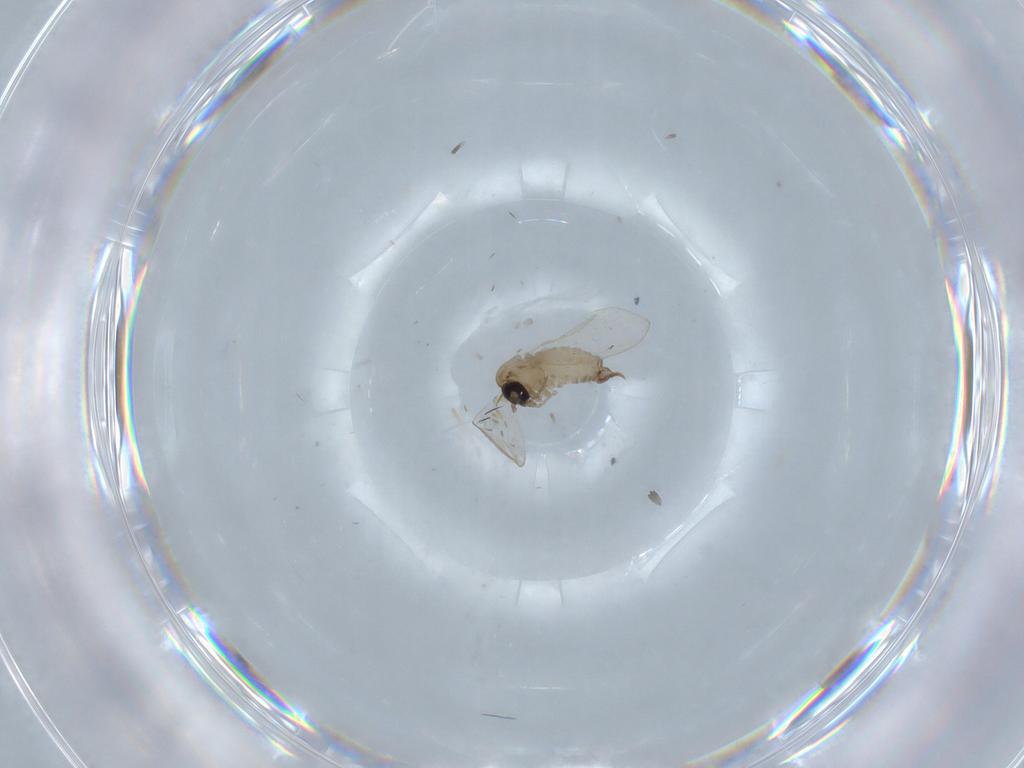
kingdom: Animalia
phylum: Arthropoda
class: Insecta
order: Diptera
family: Psychodidae
